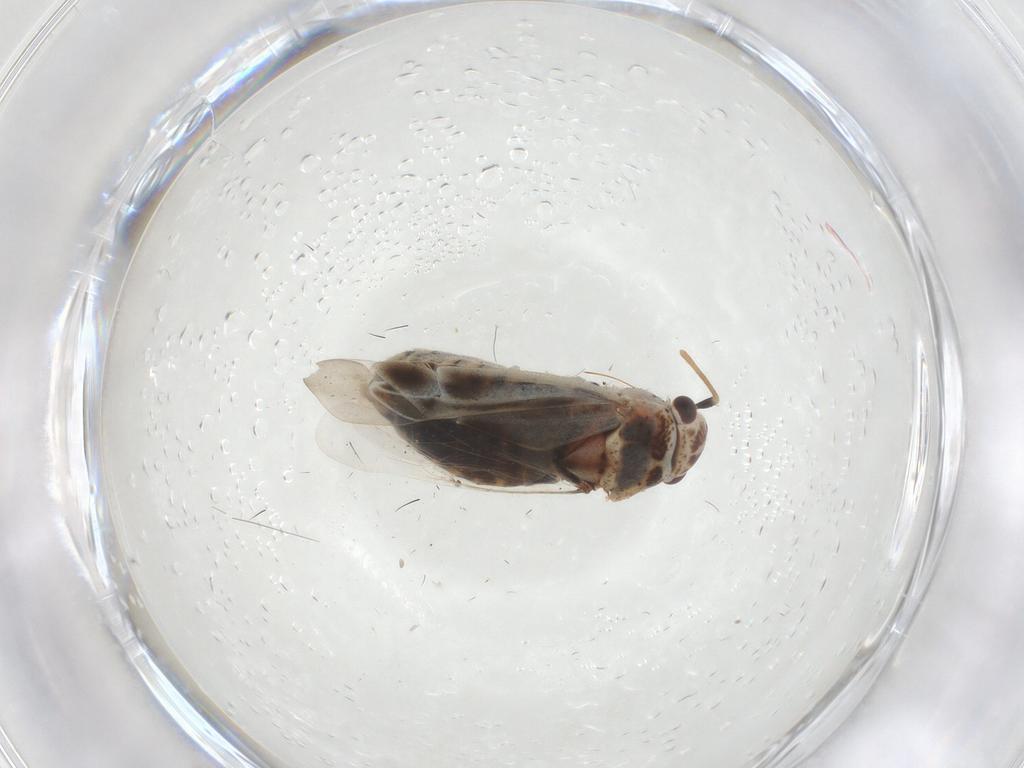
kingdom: Animalia
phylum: Arthropoda
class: Insecta
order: Hemiptera
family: Miridae
